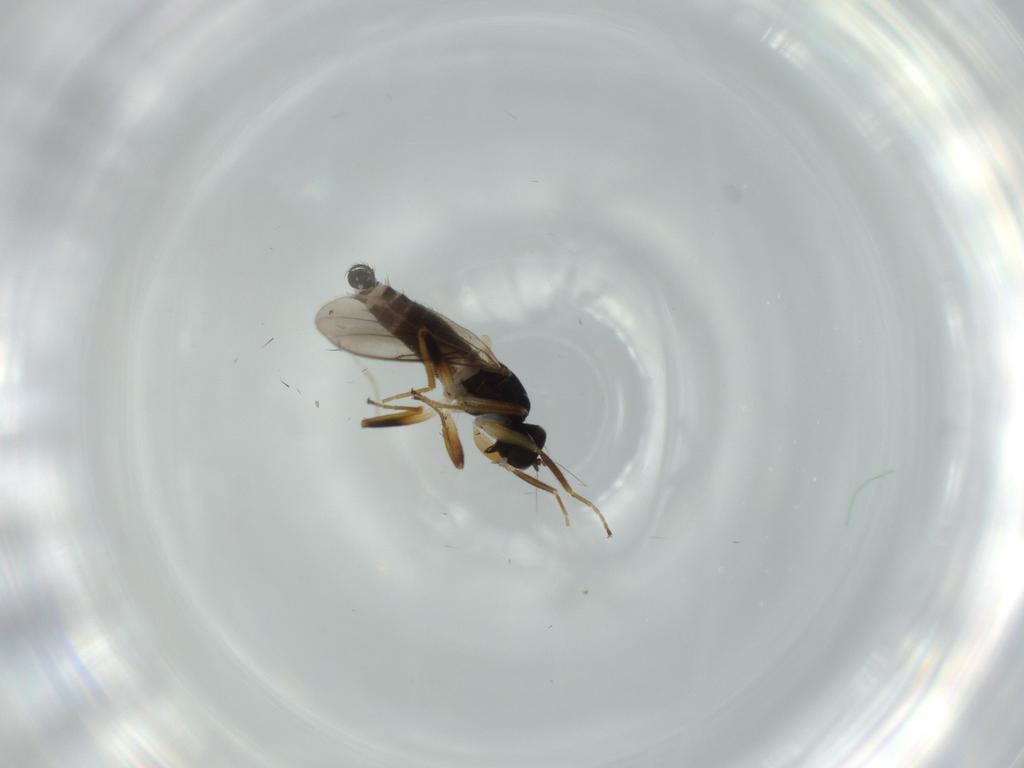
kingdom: Animalia
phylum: Arthropoda
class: Insecta
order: Diptera
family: Hybotidae
